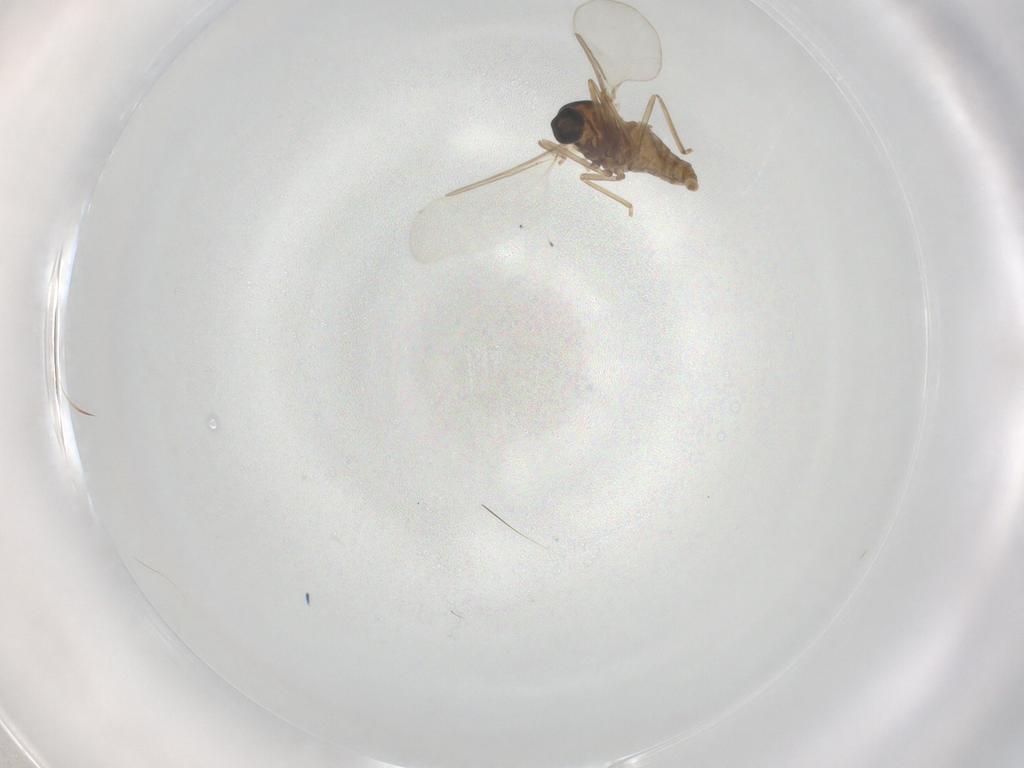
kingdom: Animalia
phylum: Arthropoda
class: Insecta
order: Diptera
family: Cecidomyiidae
